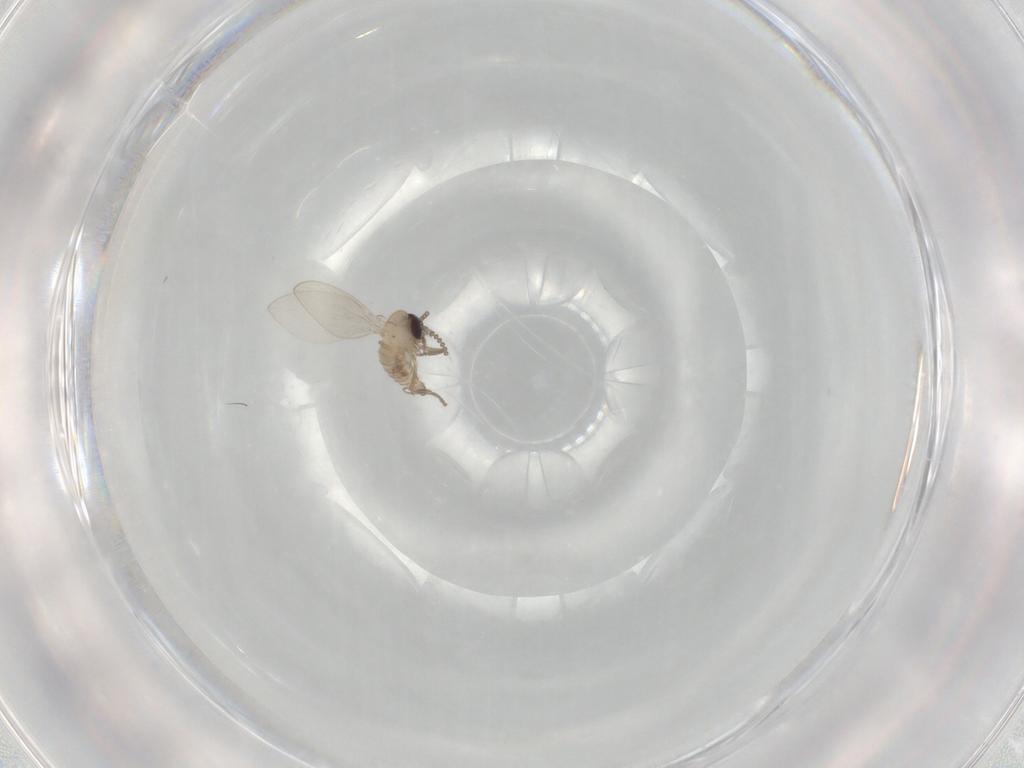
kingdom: Animalia
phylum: Arthropoda
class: Insecta
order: Diptera
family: Psychodidae
